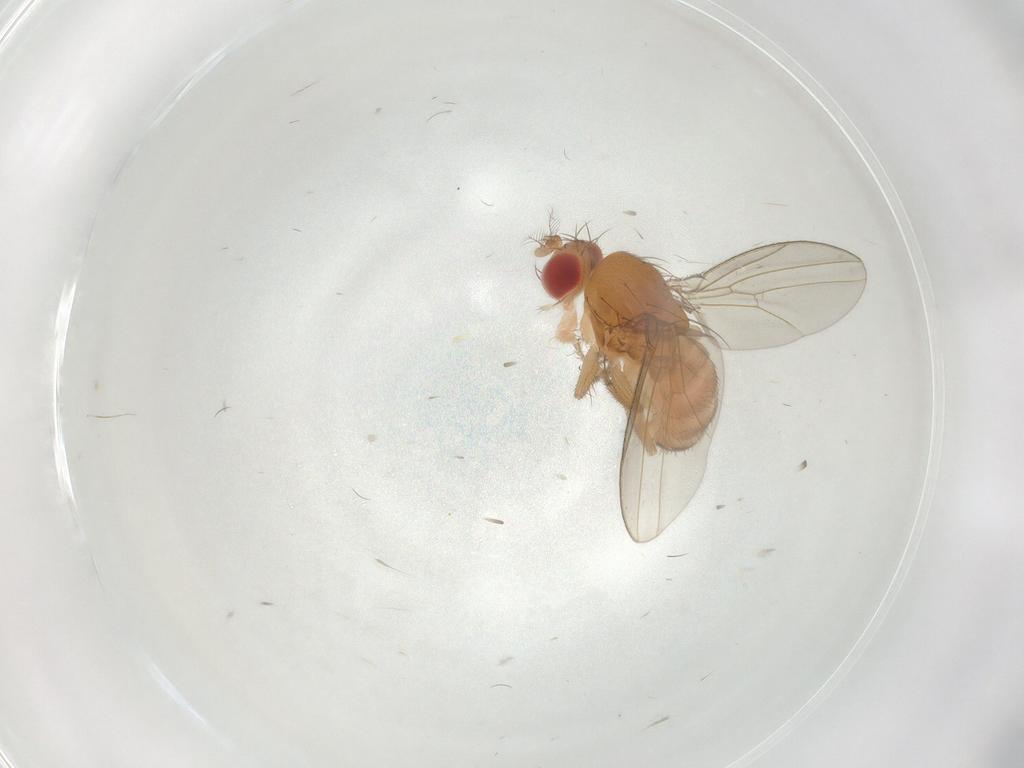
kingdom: Animalia
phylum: Arthropoda
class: Insecta
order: Diptera
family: Drosophilidae
